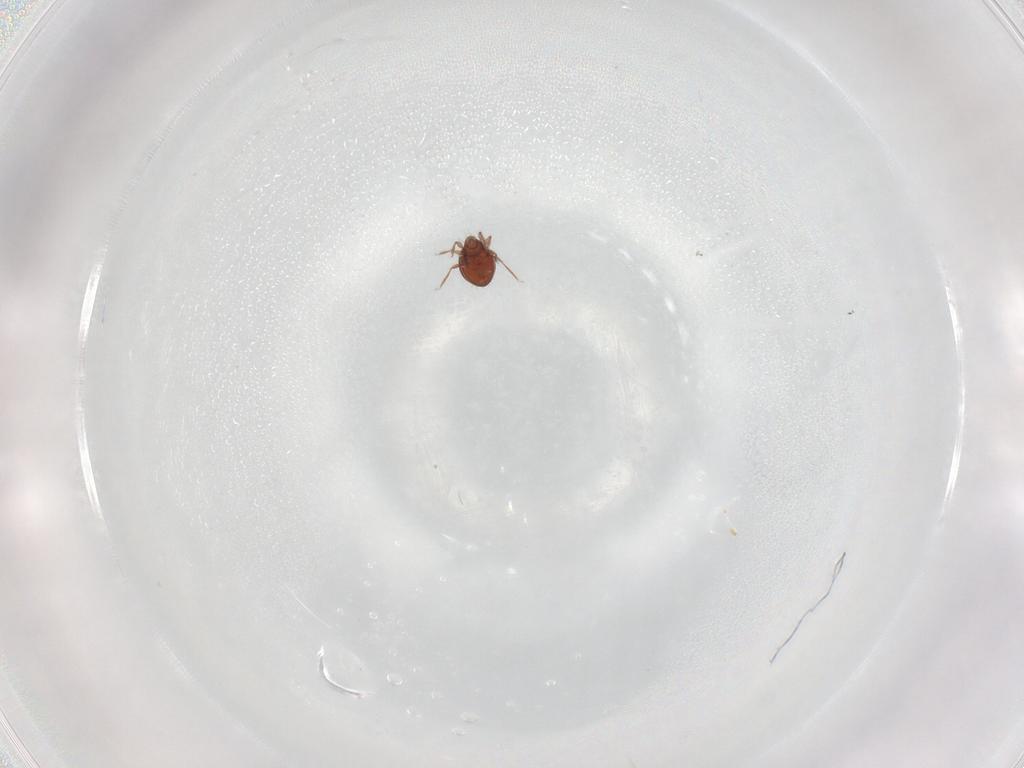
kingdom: Animalia
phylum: Arthropoda
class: Arachnida
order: Sarcoptiformes
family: Oribatulidae
